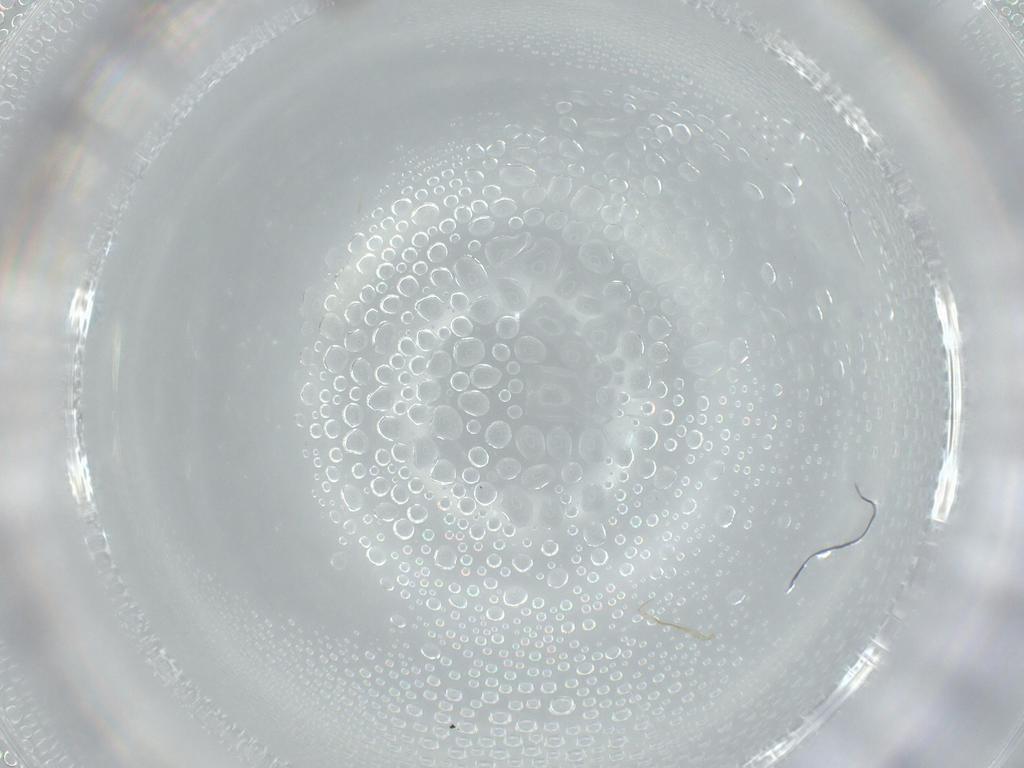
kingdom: Animalia
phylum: Arthropoda
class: Insecta
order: Diptera
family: Cecidomyiidae
